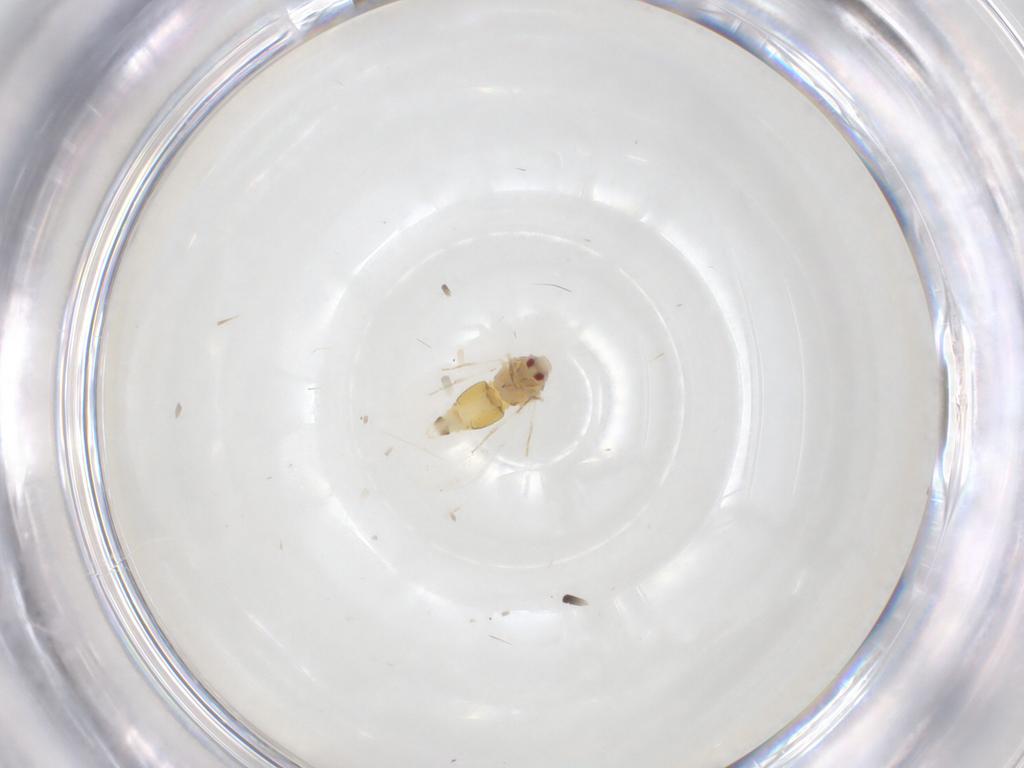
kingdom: Animalia
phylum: Arthropoda
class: Insecta
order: Hemiptera
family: Aleyrodidae
